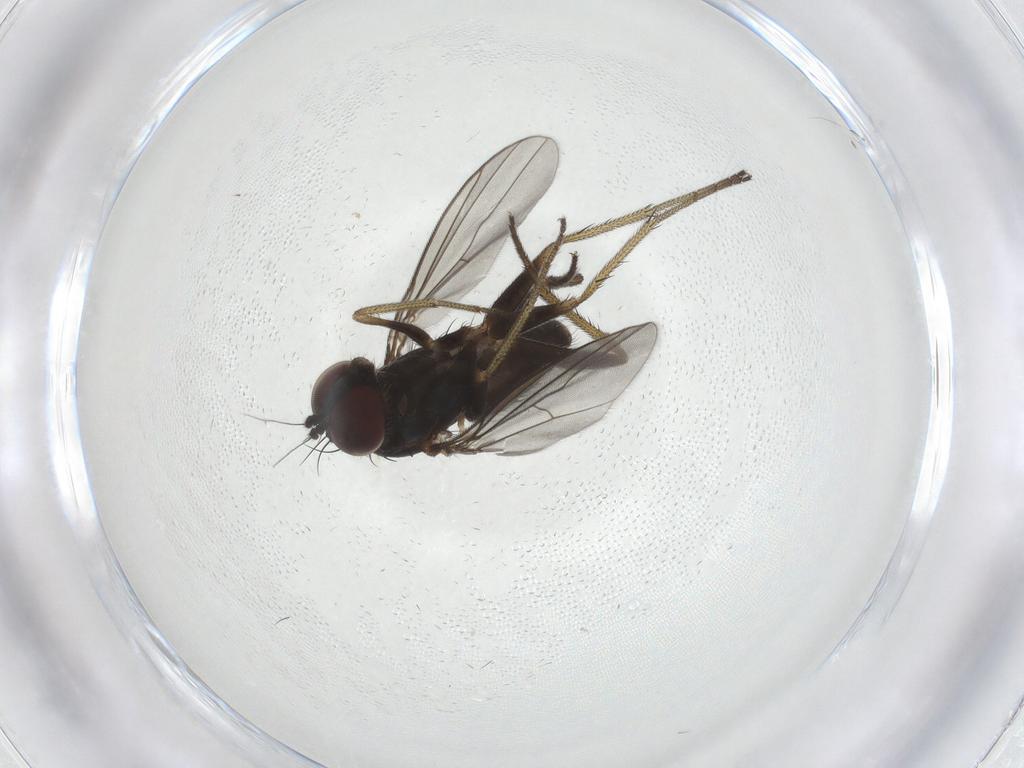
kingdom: Animalia
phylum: Arthropoda
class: Insecta
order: Diptera
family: Dolichopodidae
